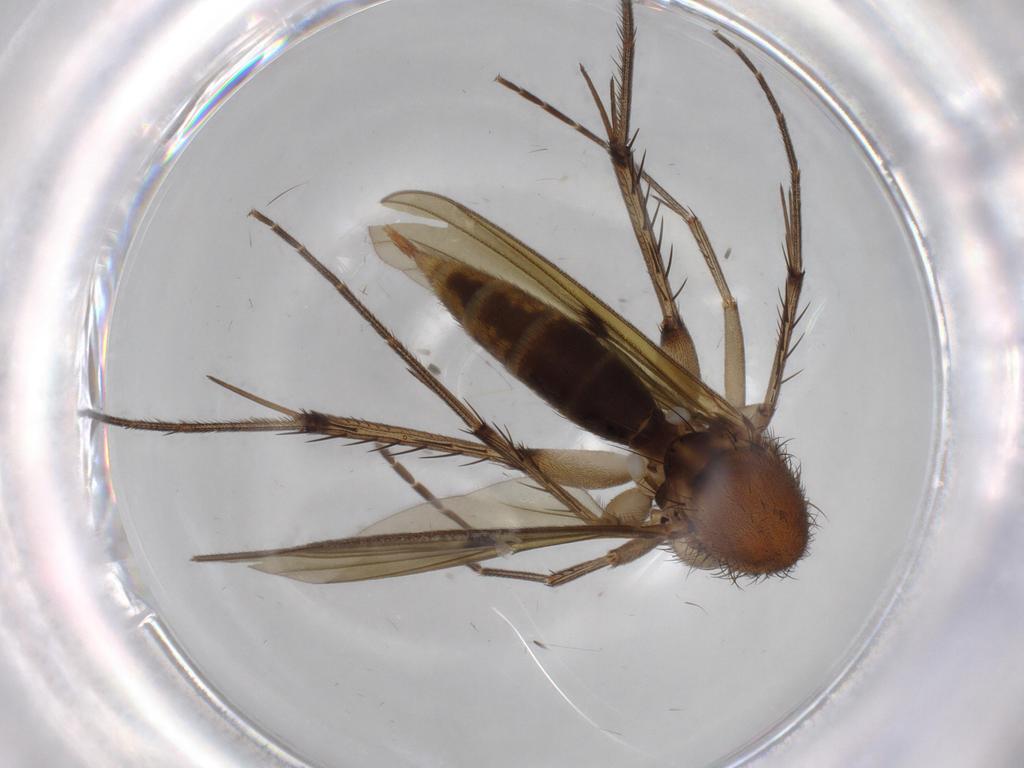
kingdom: Animalia
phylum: Arthropoda
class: Insecta
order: Diptera
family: Mycetophilidae
